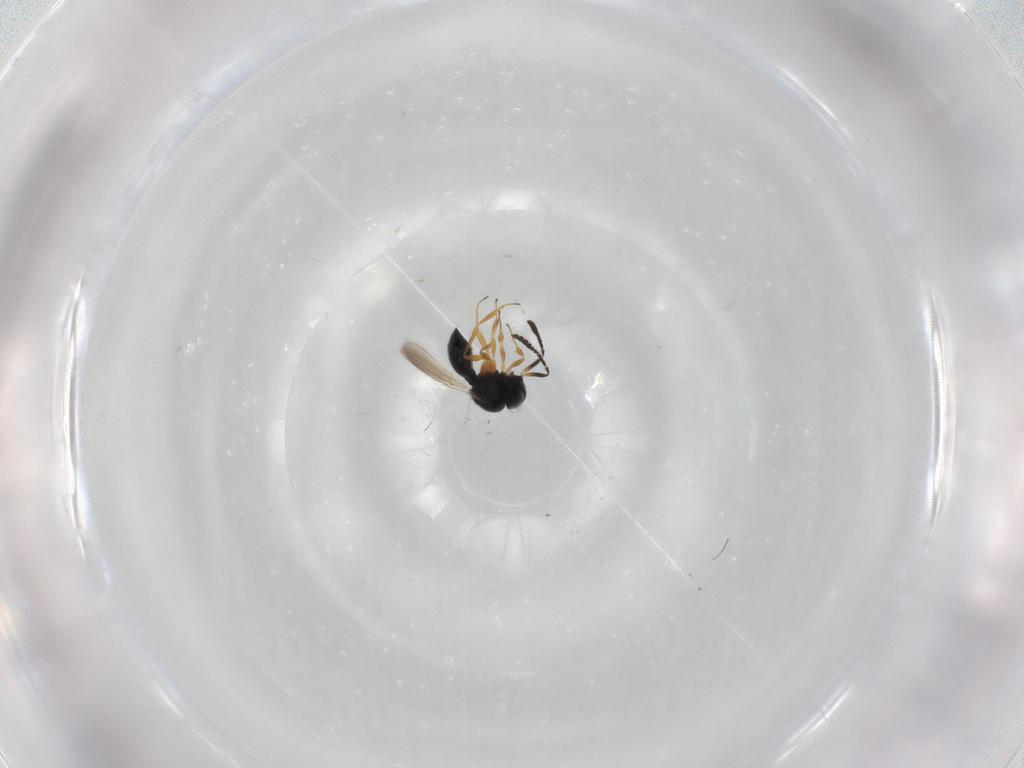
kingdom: Animalia
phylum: Arthropoda
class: Insecta
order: Hymenoptera
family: Scelionidae
